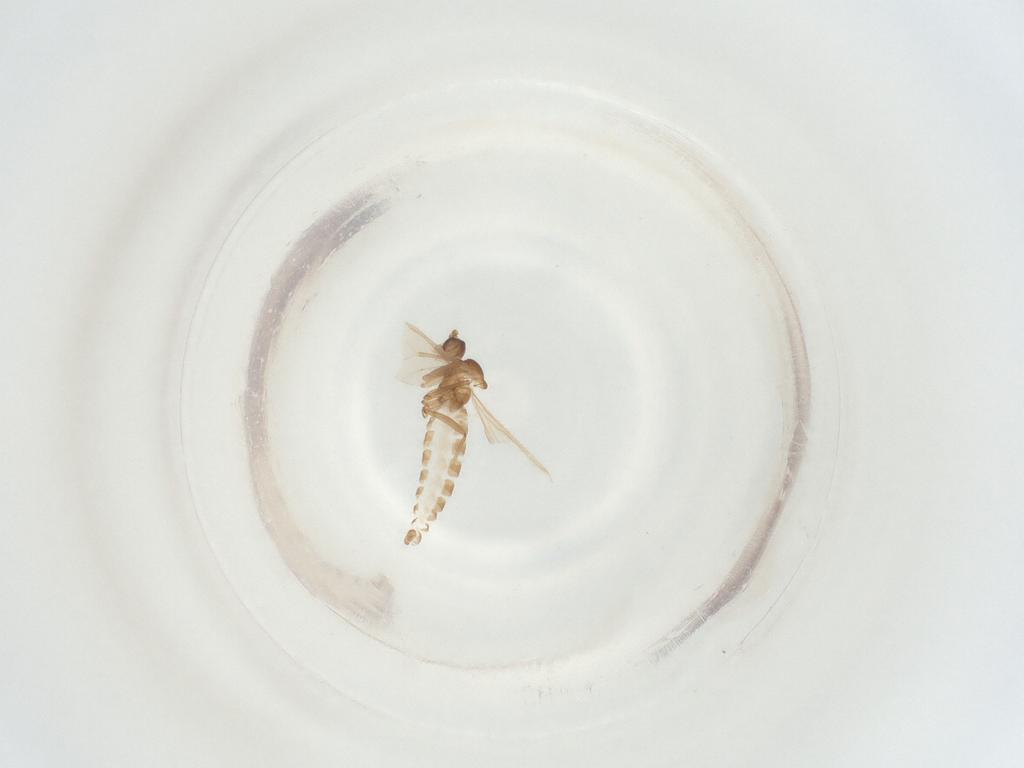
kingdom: Animalia
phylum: Arthropoda
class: Insecta
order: Diptera
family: Sciaridae
